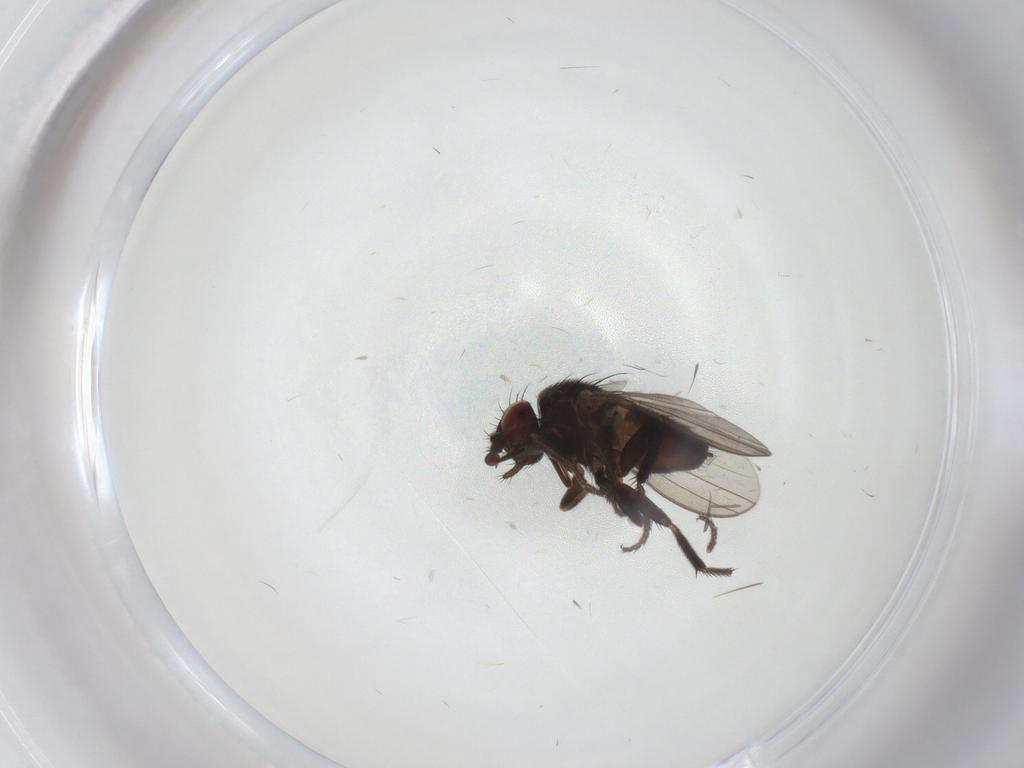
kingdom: Animalia
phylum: Arthropoda
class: Insecta
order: Diptera
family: Milichiidae
